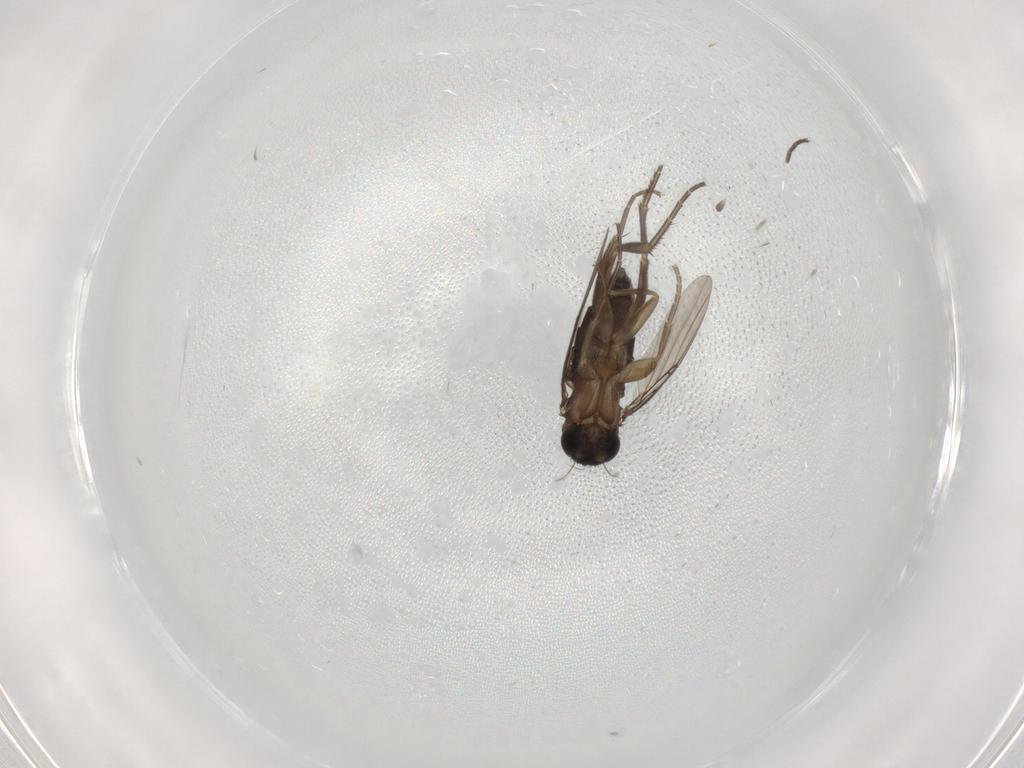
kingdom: Animalia
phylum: Arthropoda
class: Insecta
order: Diptera
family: Phoridae
